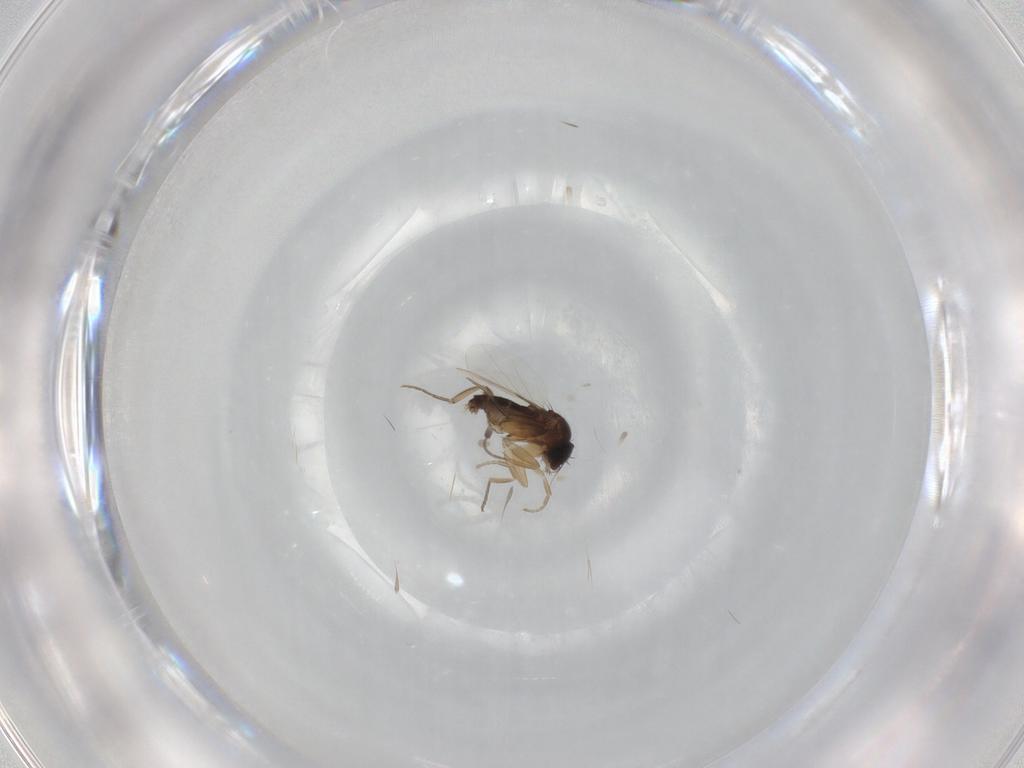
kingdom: Animalia
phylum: Arthropoda
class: Insecta
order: Diptera
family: Phoridae
